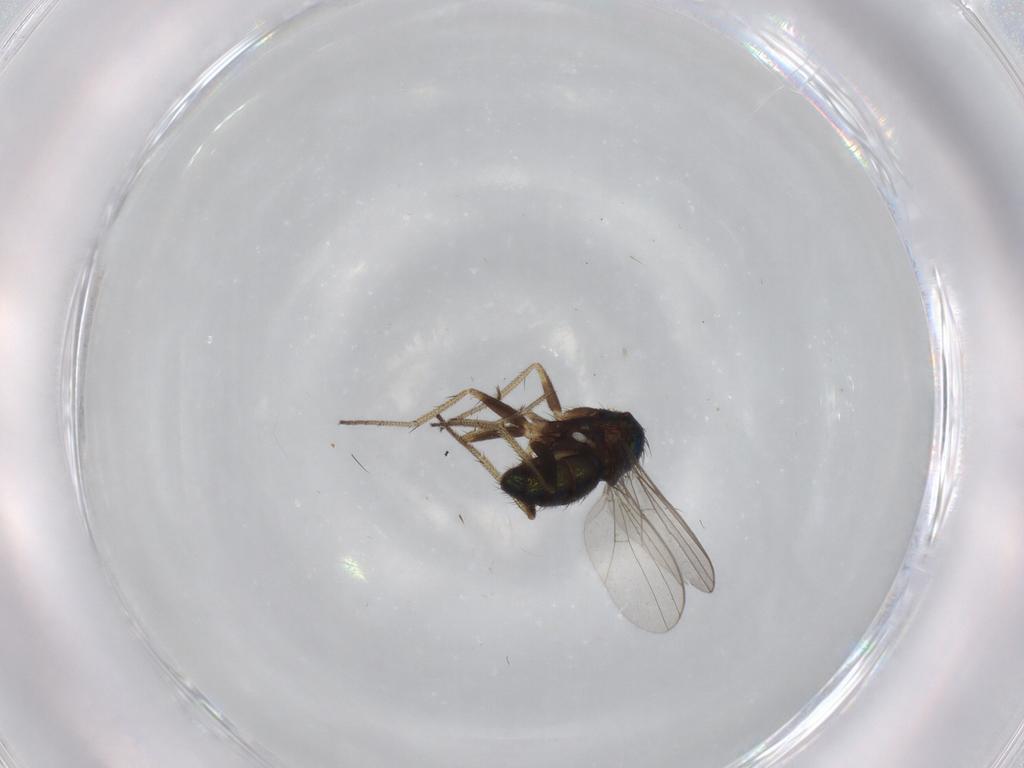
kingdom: Animalia
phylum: Arthropoda
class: Insecta
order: Diptera
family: Dolichopodidae
